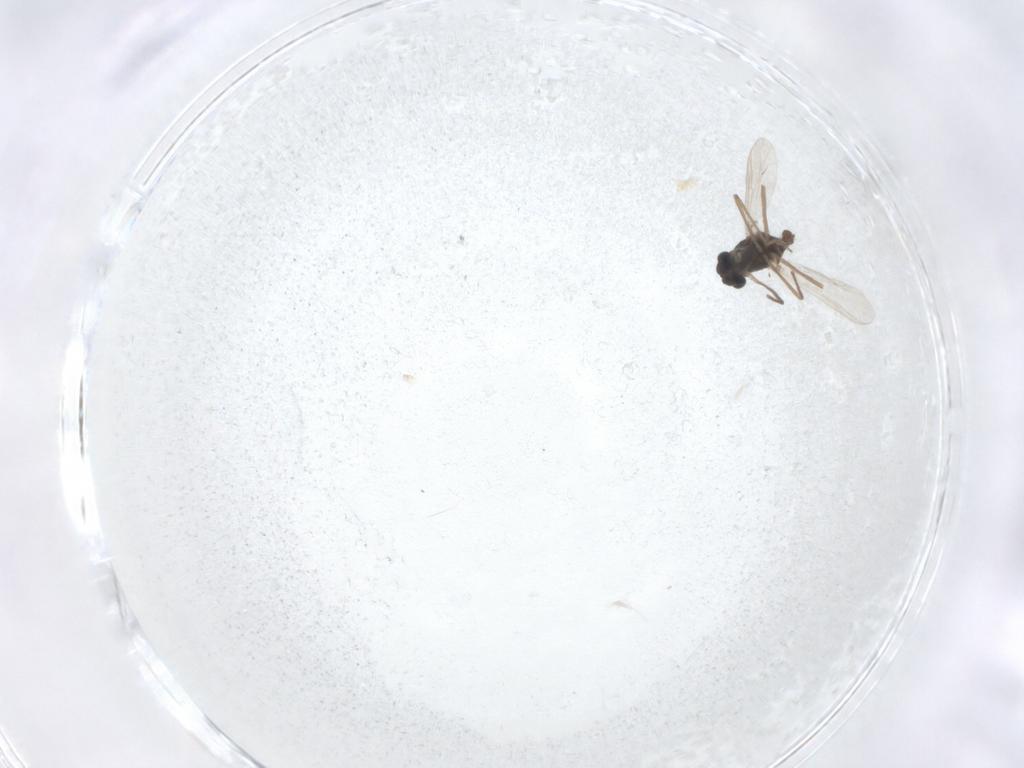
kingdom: Animalia
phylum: Arthropoda
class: Insecta
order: Diptera
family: Chironomidae
